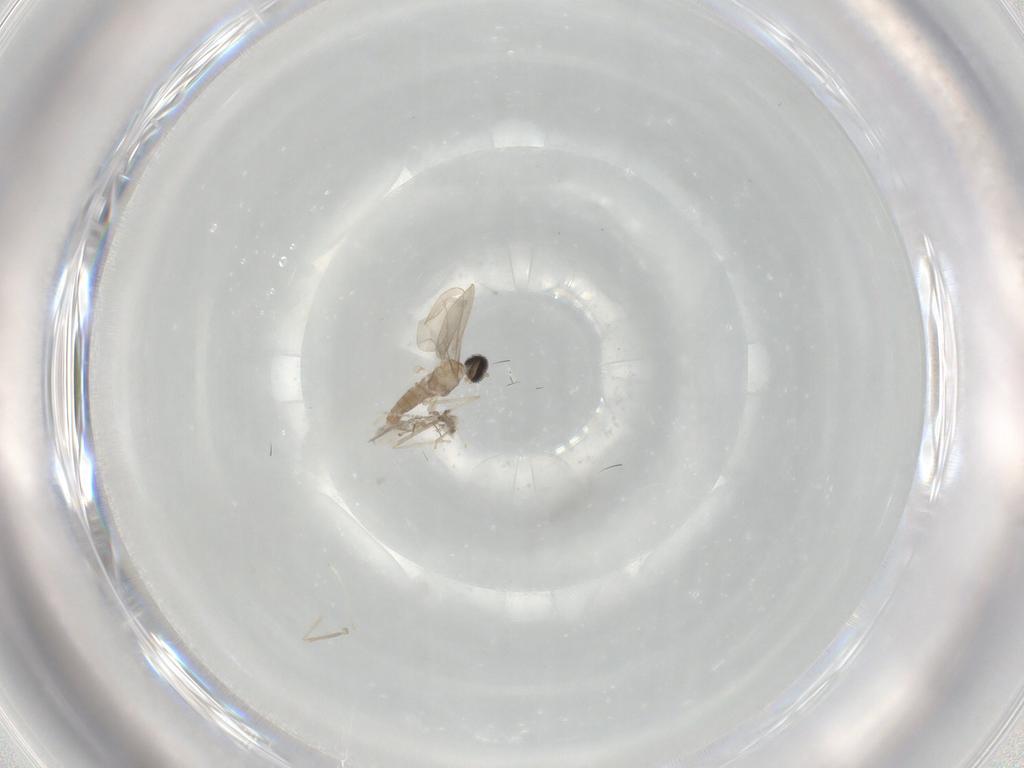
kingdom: Animalia
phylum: Arthropoda
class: Insecta
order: Diptera
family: Cecidomyiidae
